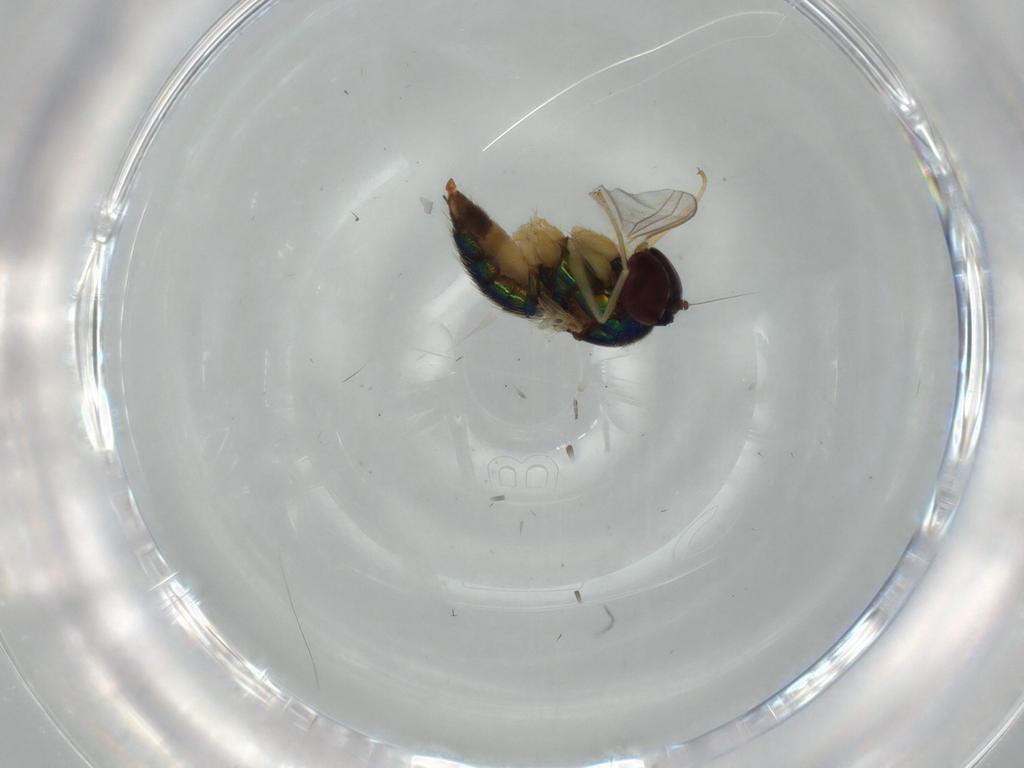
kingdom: Animalia
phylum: Arthropoda
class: Insecta
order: Diptera
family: Dolichopodidae
